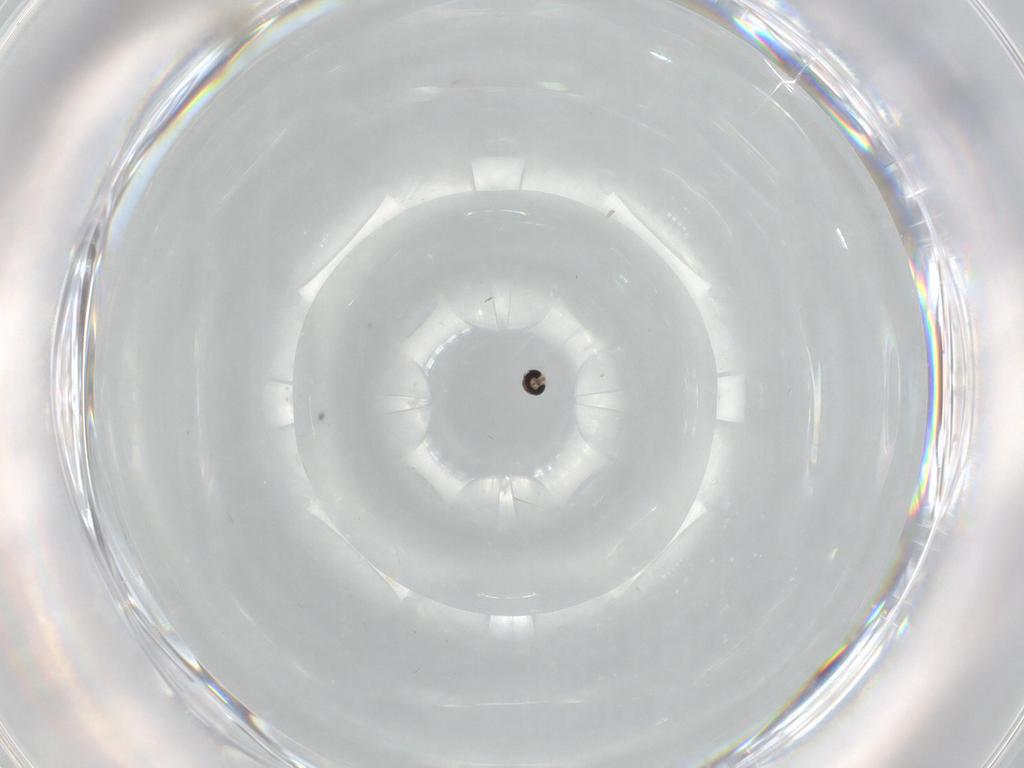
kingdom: Animalia
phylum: Arthropoda
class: Insecta
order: Diptera
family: Cecidomyiidae
